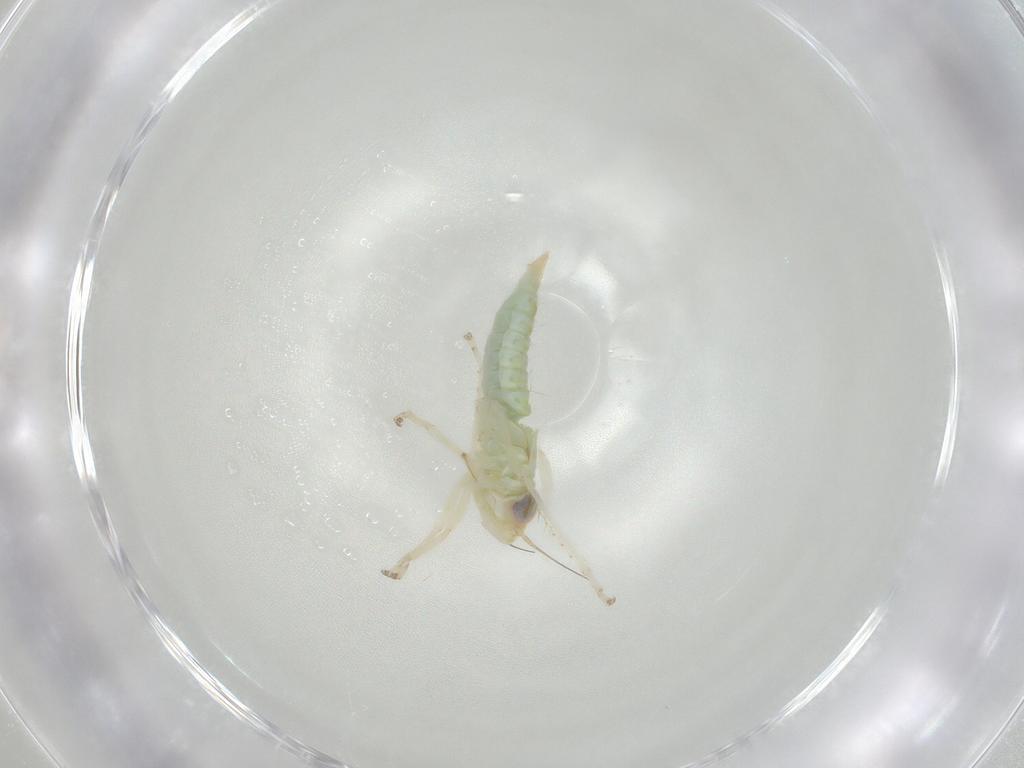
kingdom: Animalia
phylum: Arthropoda
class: Insecta
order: Hemiptera
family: Cicadellidae
